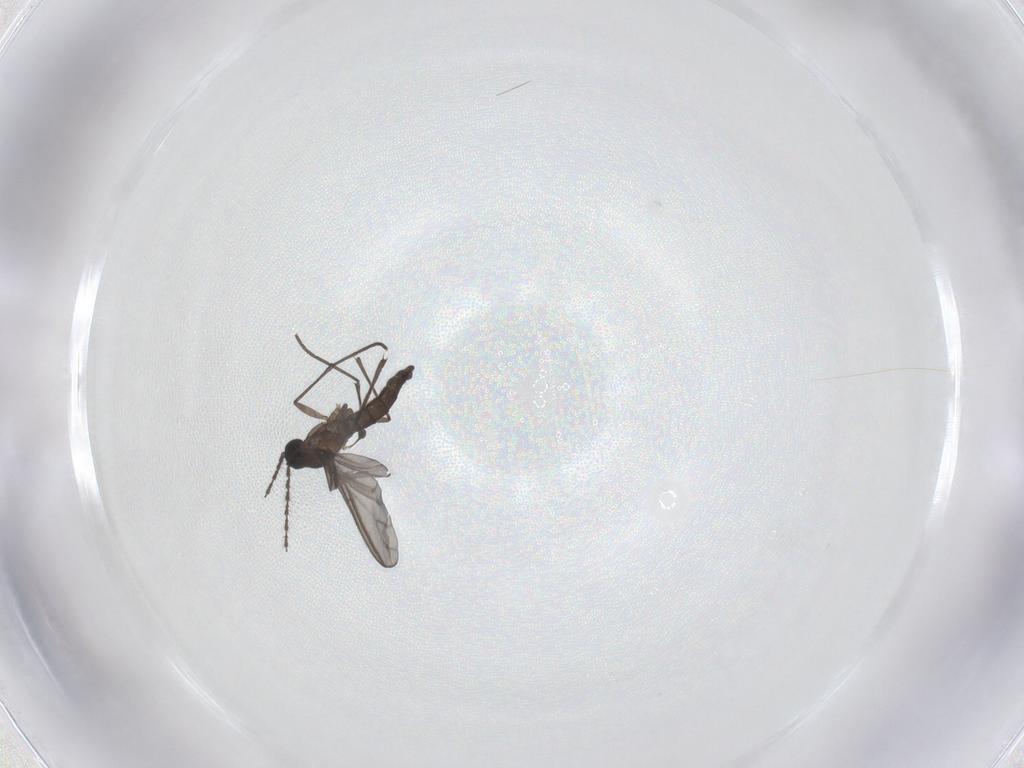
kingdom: Animalia
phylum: Arthropoda
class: Insecta
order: Diptera
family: Sciaridae
